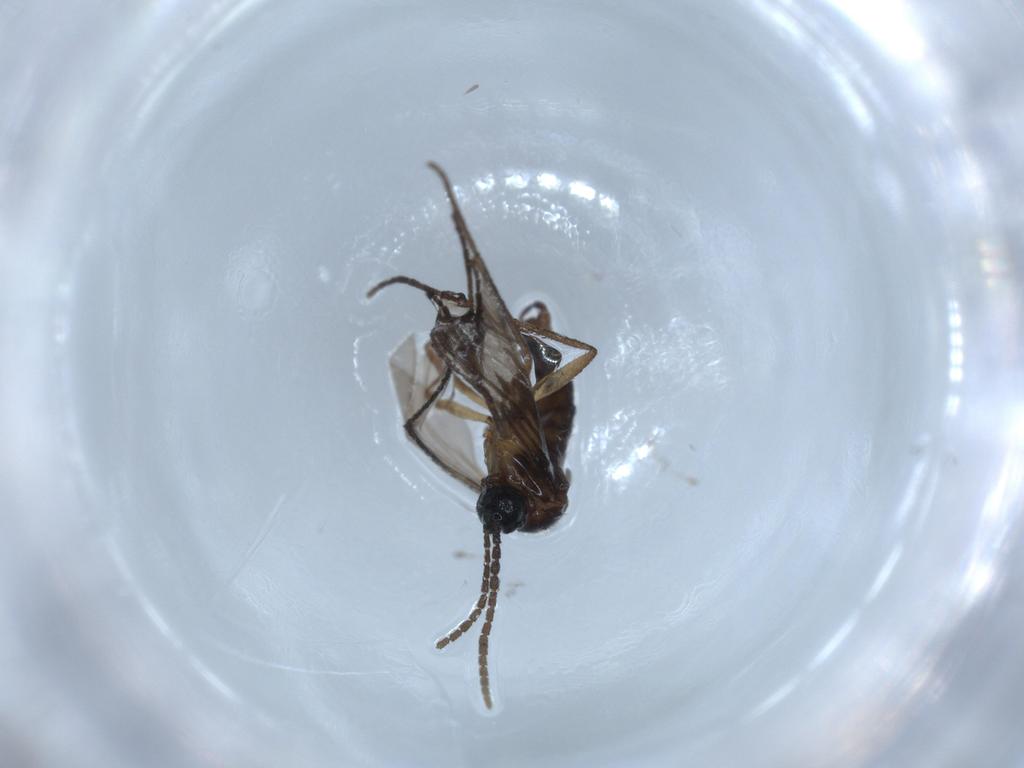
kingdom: Animalia
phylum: Arthropoda
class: Insecta
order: Diptera
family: Sciaridae
